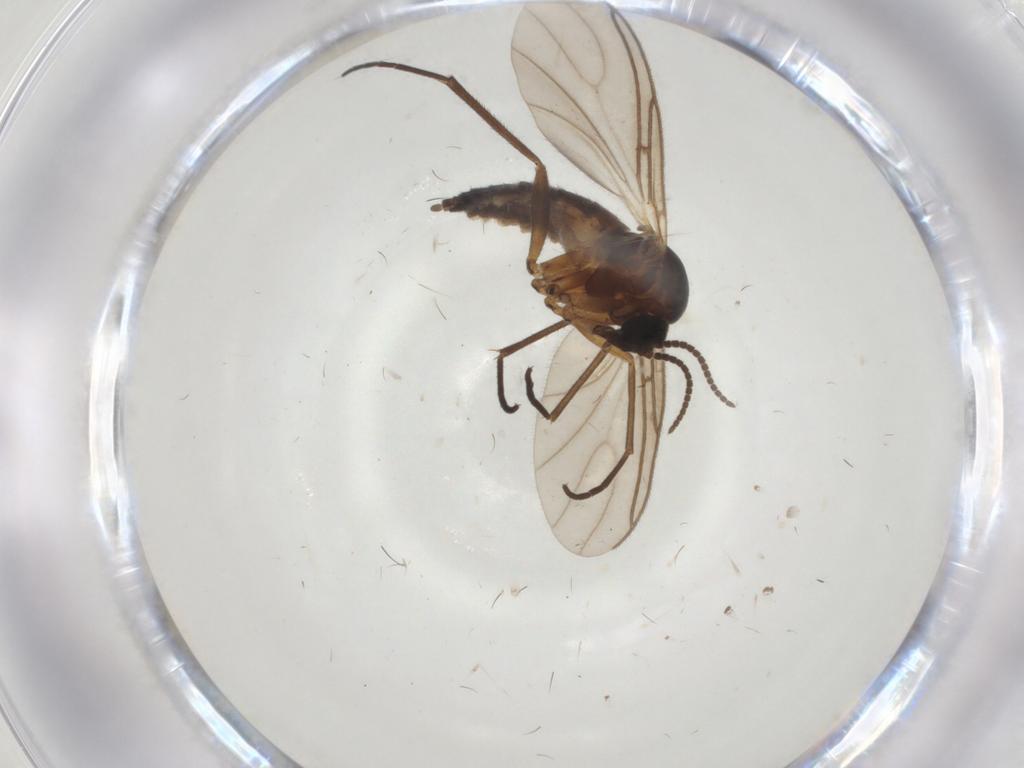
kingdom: Animalia
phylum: Arthropoda
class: Insecta
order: Diptera
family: Sciaridae
